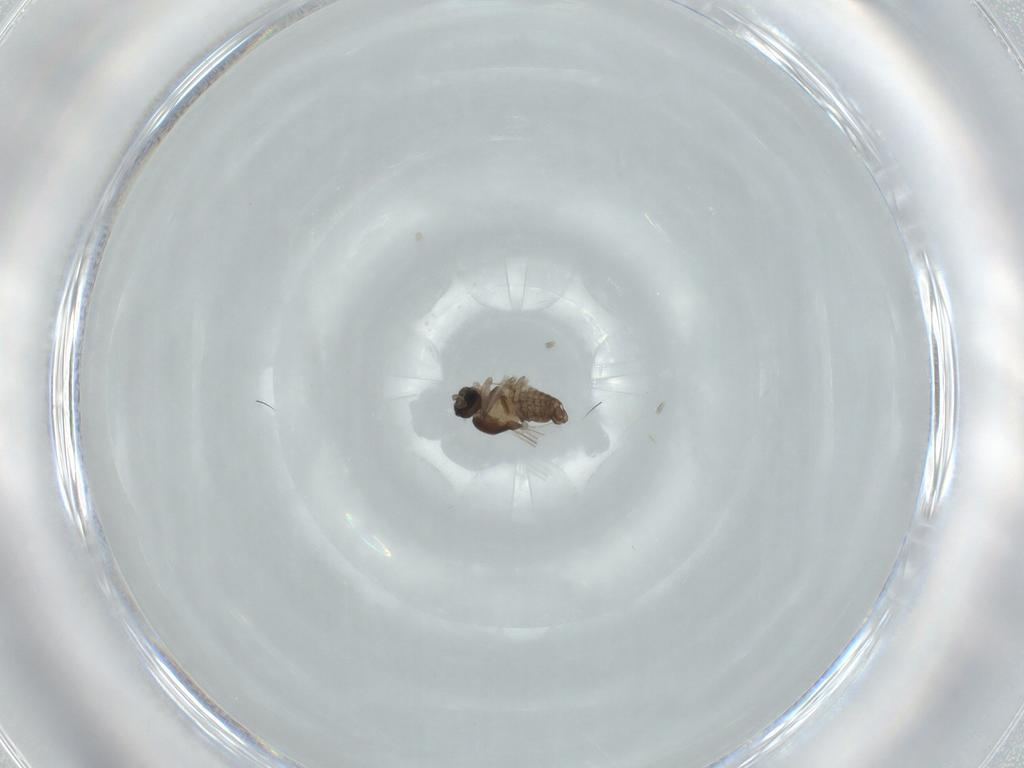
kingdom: Animalia
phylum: Arthropoda
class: Insecta
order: Diptera
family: Cecidomyiidae
